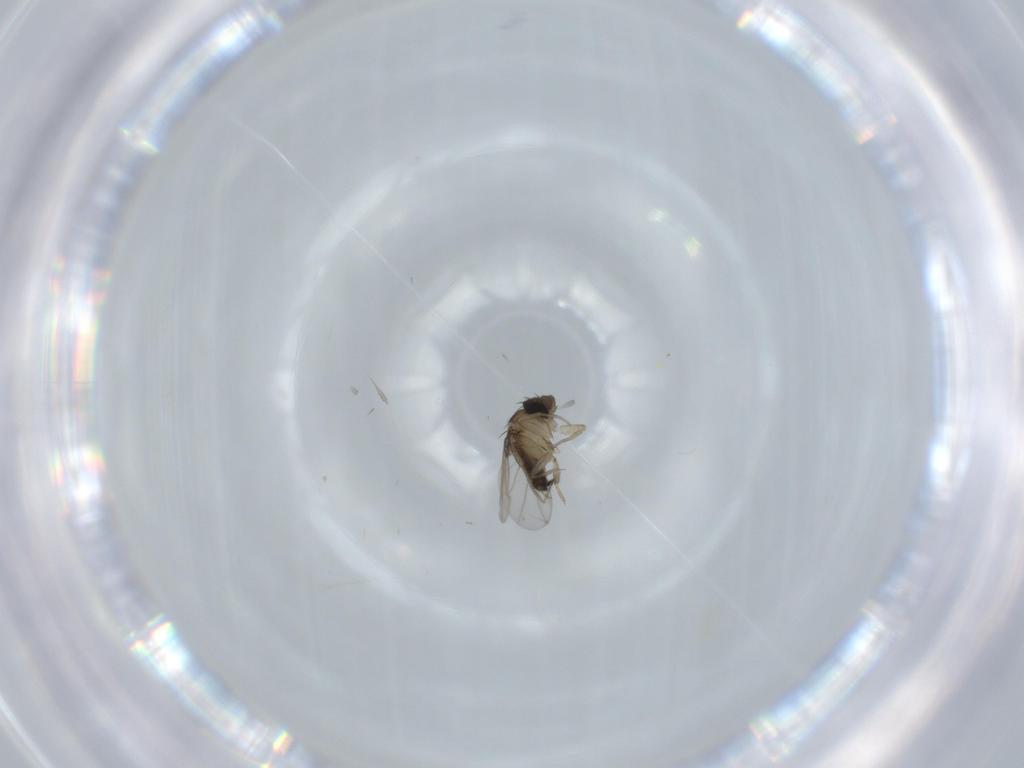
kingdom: Animalia
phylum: Arthropoda
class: Insecta
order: Diptera
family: Phoridae
